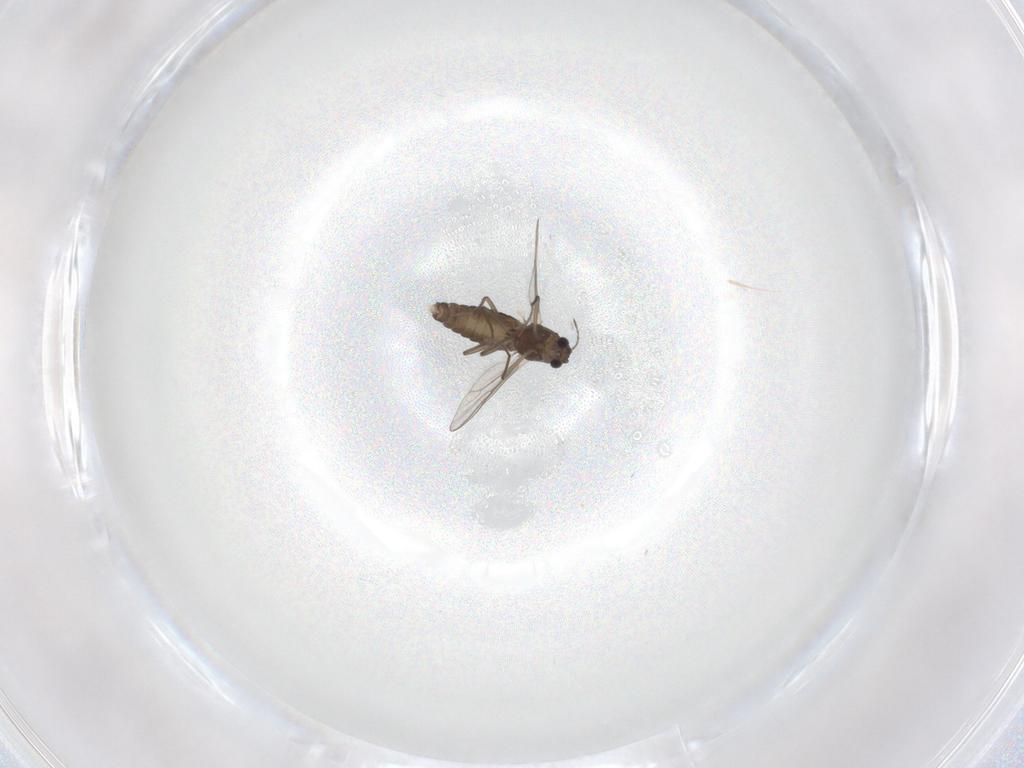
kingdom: Animalia
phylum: Arthropoda
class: Insecta
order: Diptera
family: Chironomidae
